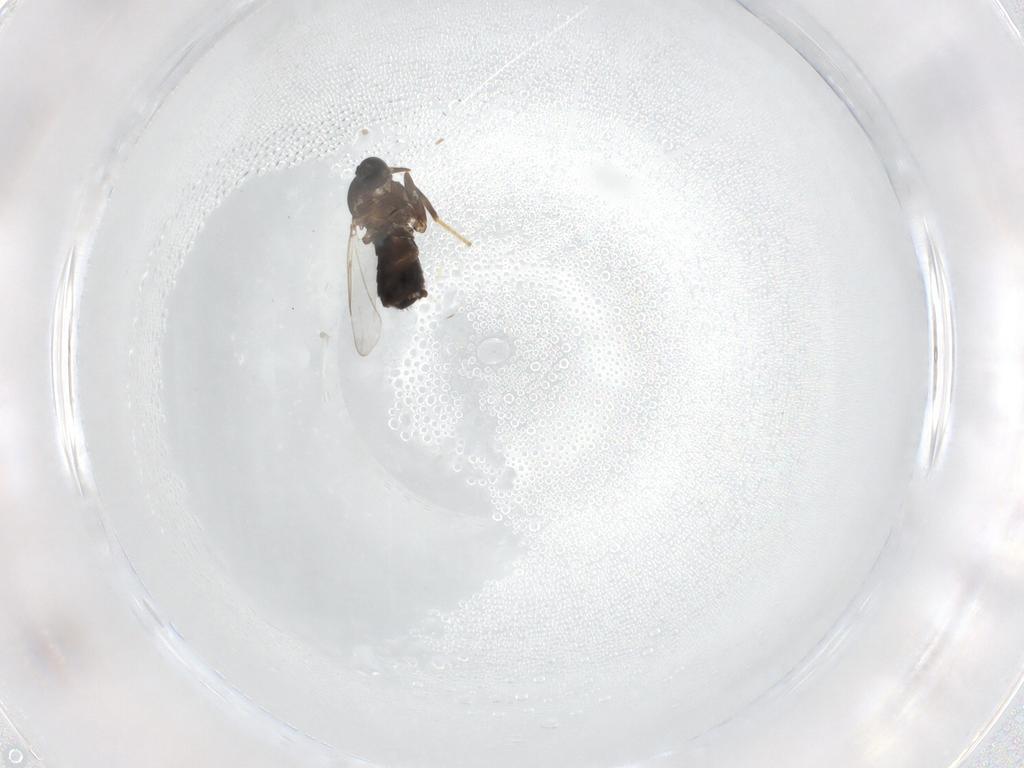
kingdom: Animalia
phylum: Arthropoda
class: Insecta
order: Diptera
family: Scatopsidae
